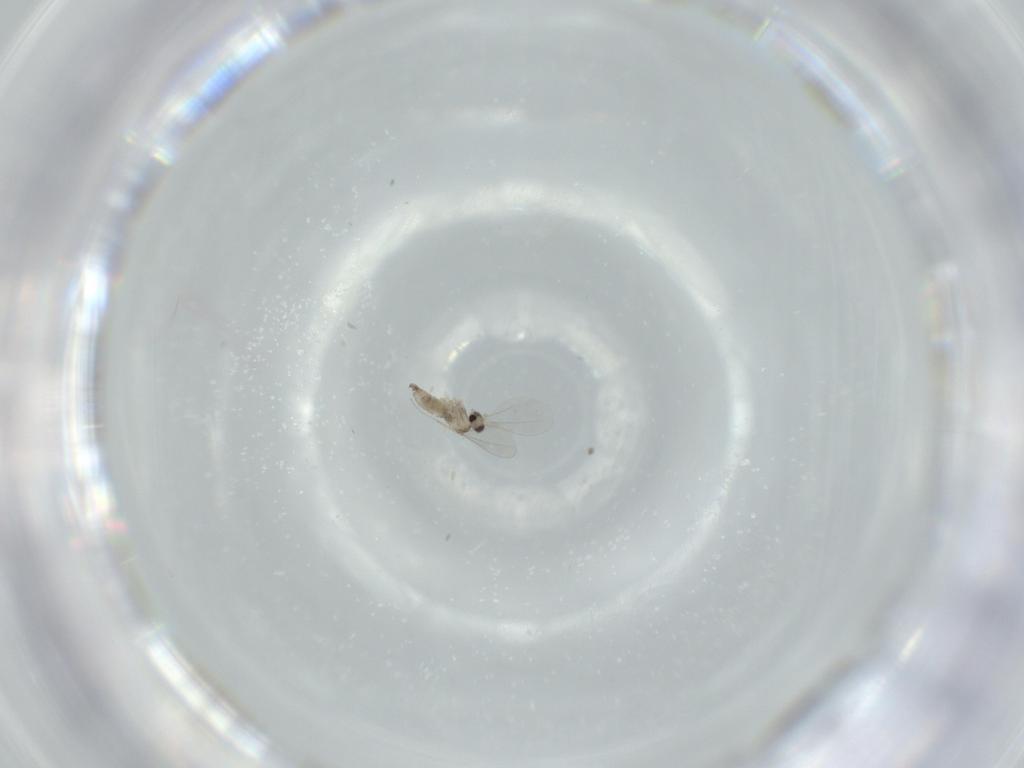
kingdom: Animalia
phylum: Arthropoda
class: Insecta
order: Diptera
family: Cecidomyiidae
